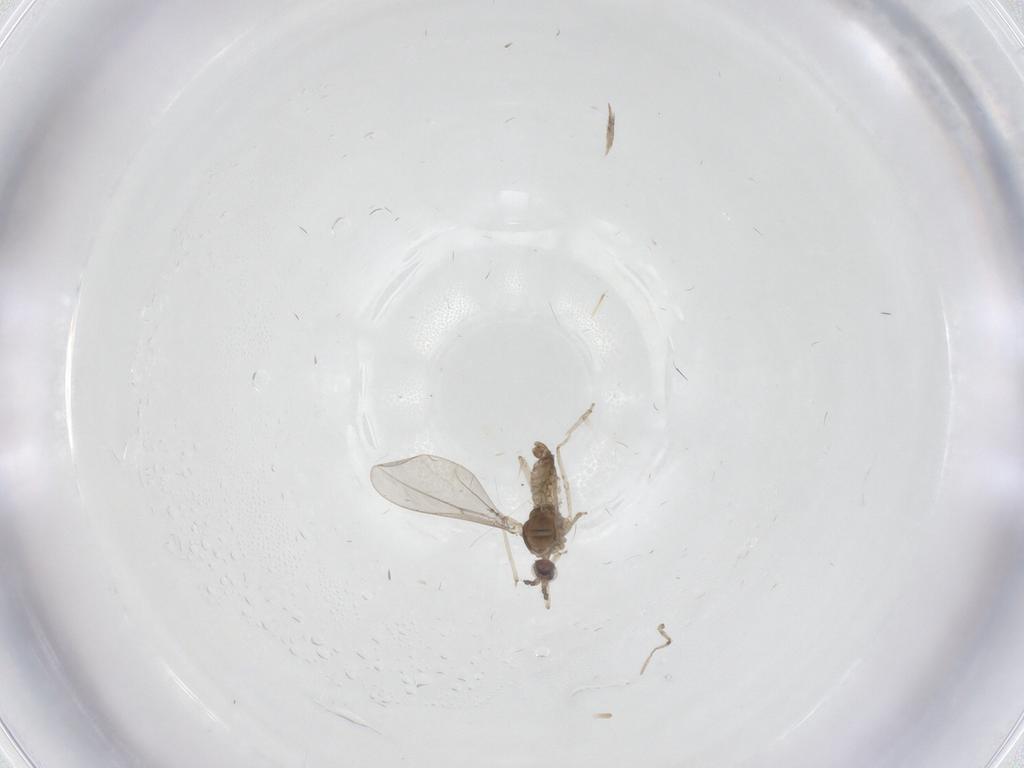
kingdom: Animalia
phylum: Arthropoda
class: Insecta
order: Diptera
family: Cecidomyiidae
